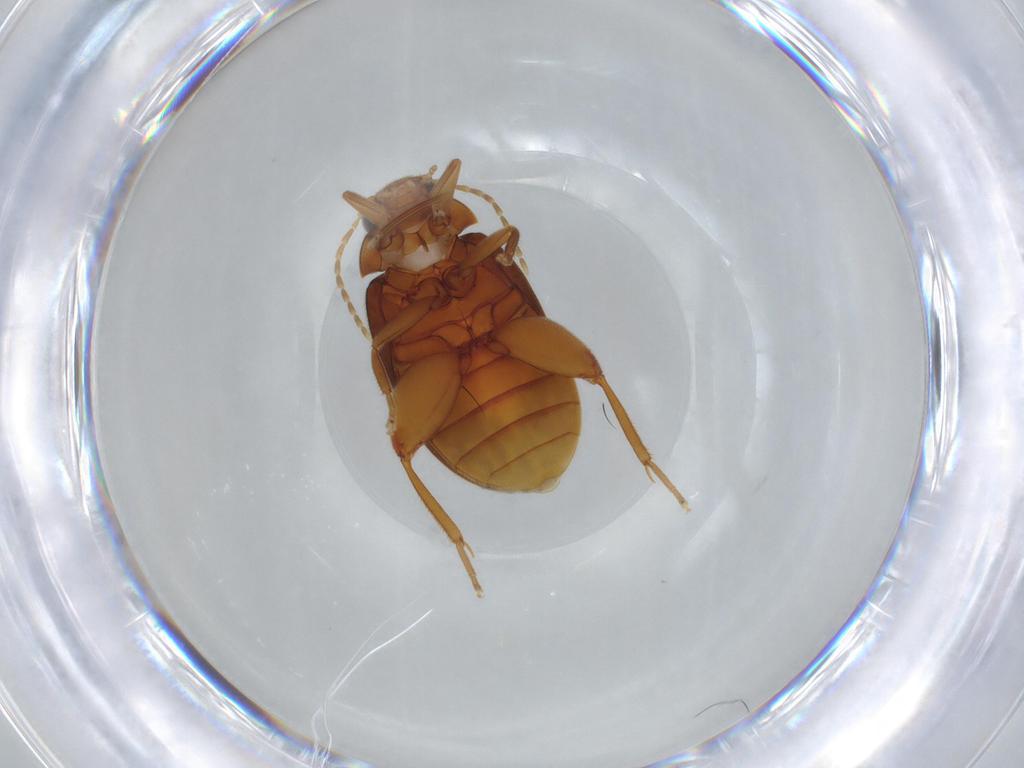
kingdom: Animalia
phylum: Arthropoda
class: Insecta
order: Coleoptera
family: Scirtidae
